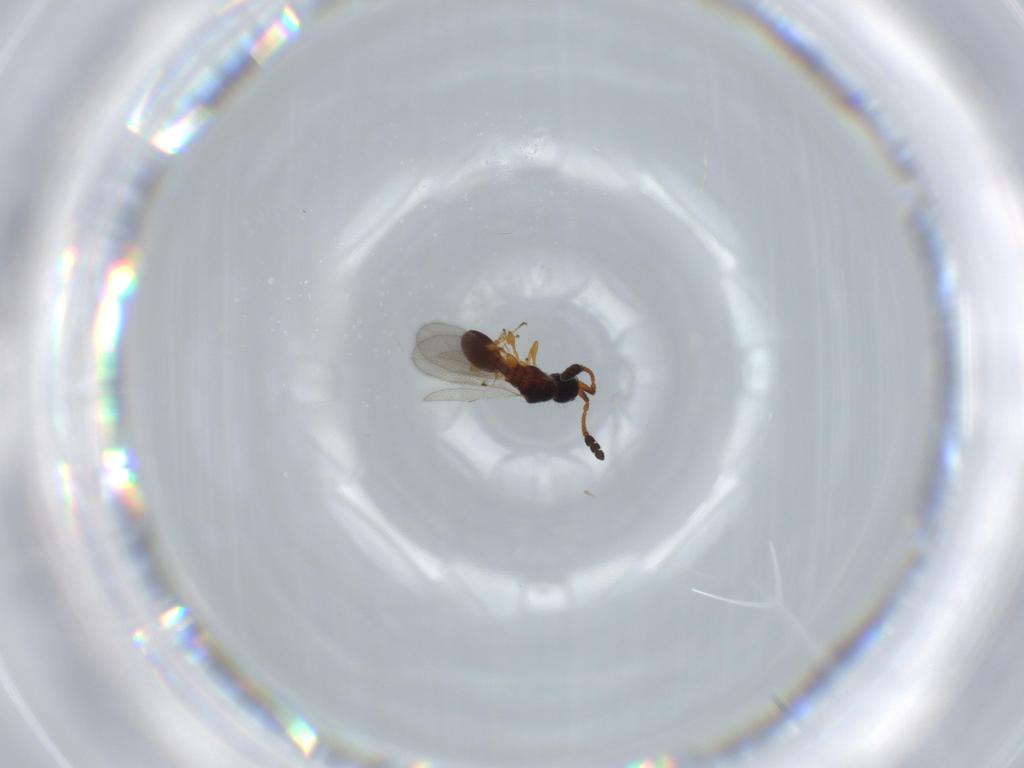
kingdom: Animalia
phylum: Arthropoda
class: Insecta
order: Hymenoptera
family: Diapriidae
